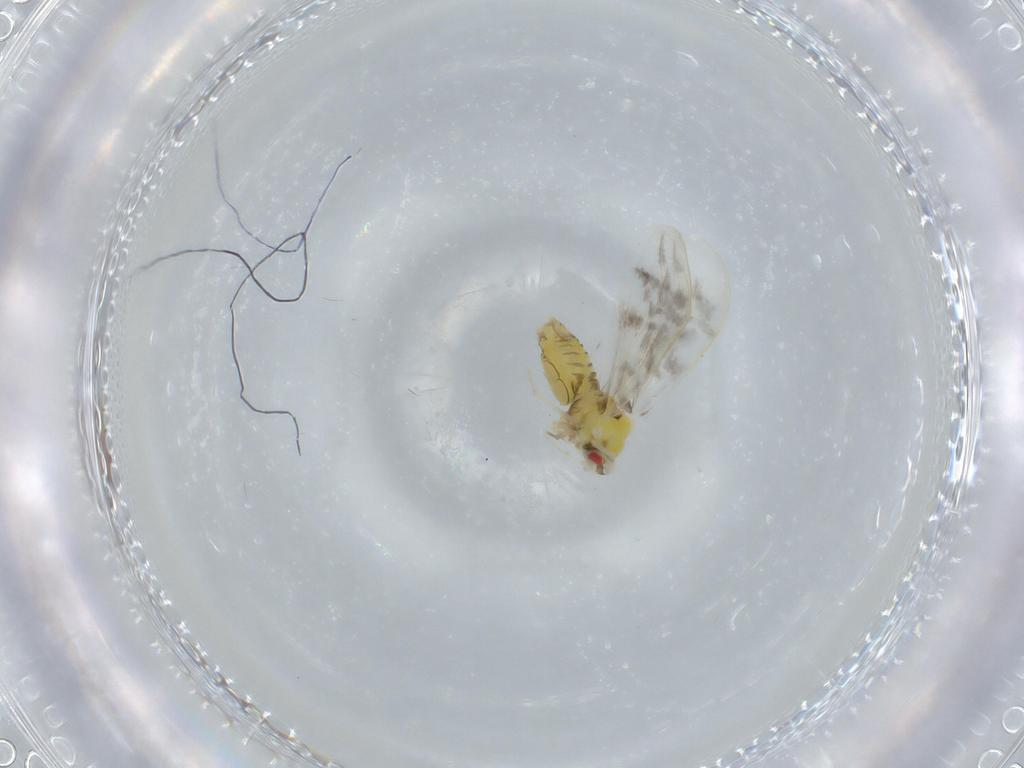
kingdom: Animalia
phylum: Arthropoda
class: Insecta
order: Hemiptera
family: Aleyrodidae
